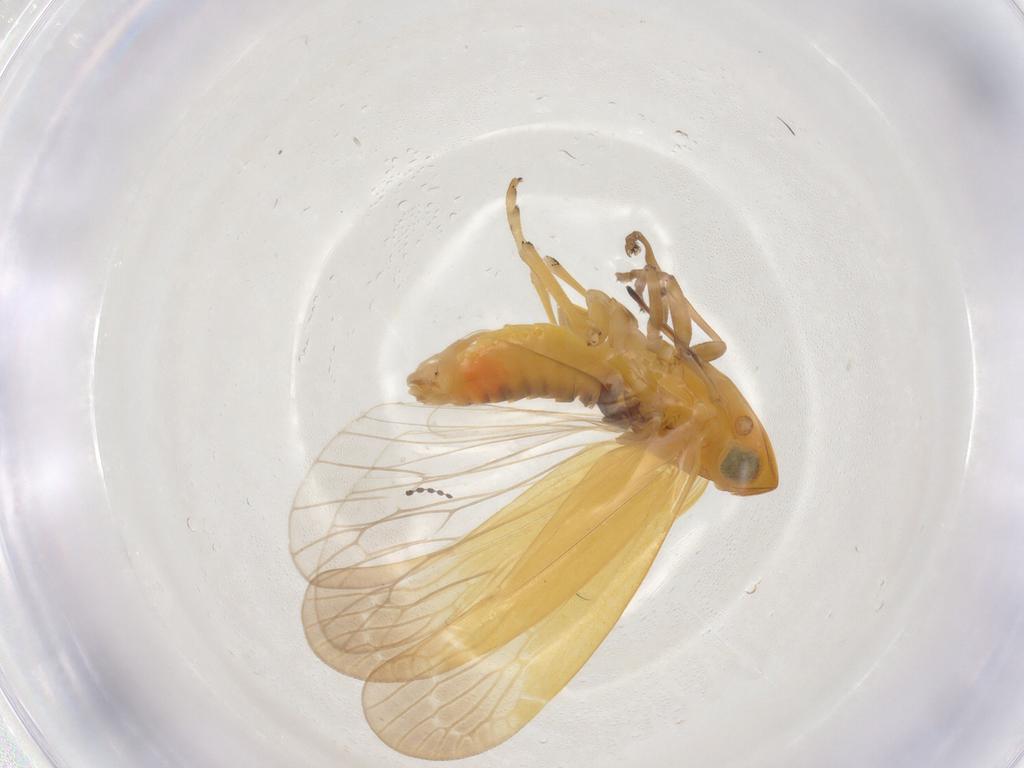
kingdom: Animalia
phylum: Arthropoda
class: Insecta
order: Hemiptera
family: Achilidae
